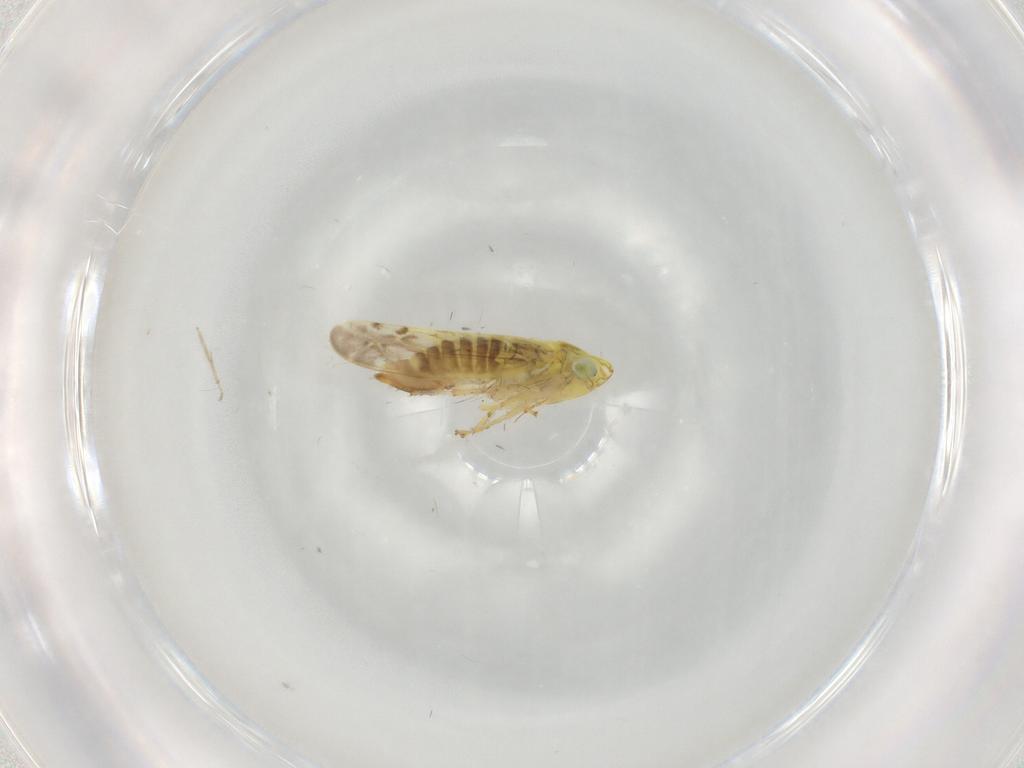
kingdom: Animalia
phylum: Arthropoda
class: Insecta
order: Hemiptera
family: Cicadellidae
